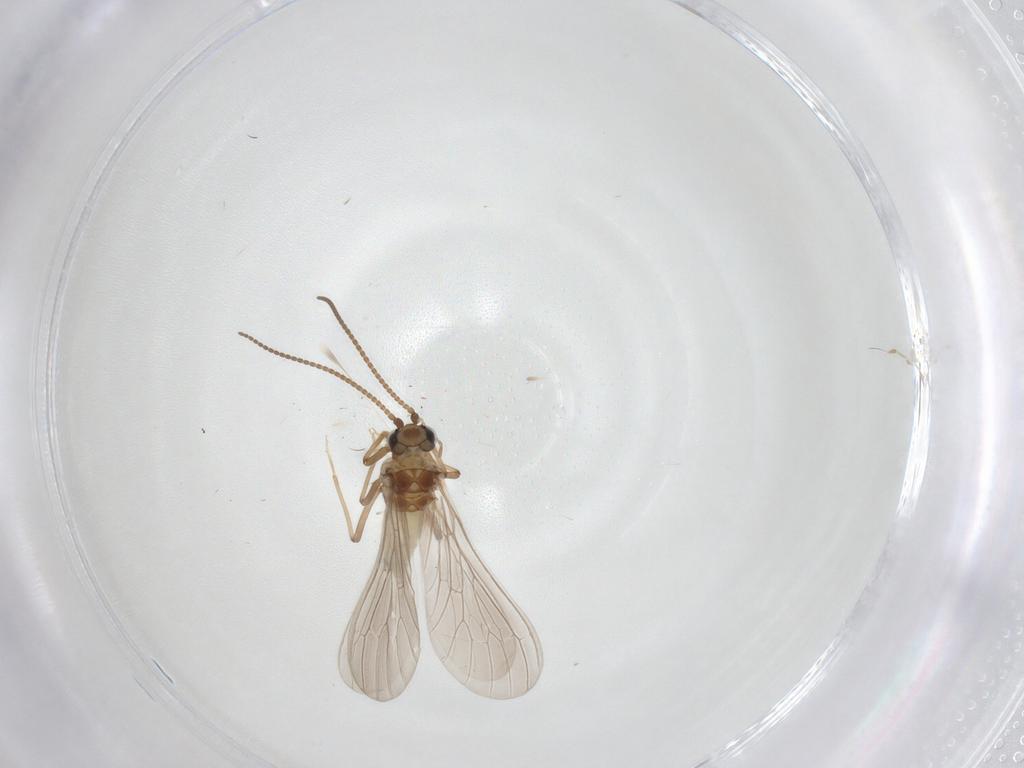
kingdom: Animalia
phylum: Arthropoda
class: Insecta
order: Neuroptera
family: Coniopterygidae
